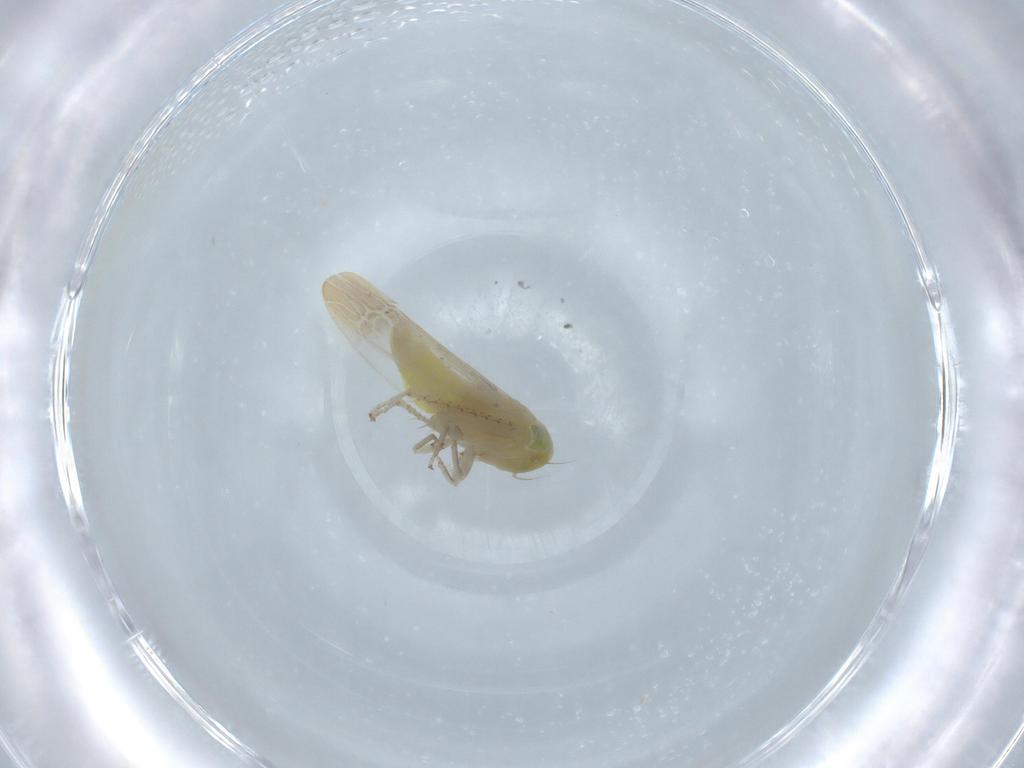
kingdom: Animalia
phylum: Arthropoda
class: Insecta
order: Hemiptera
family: Cicadellidae
